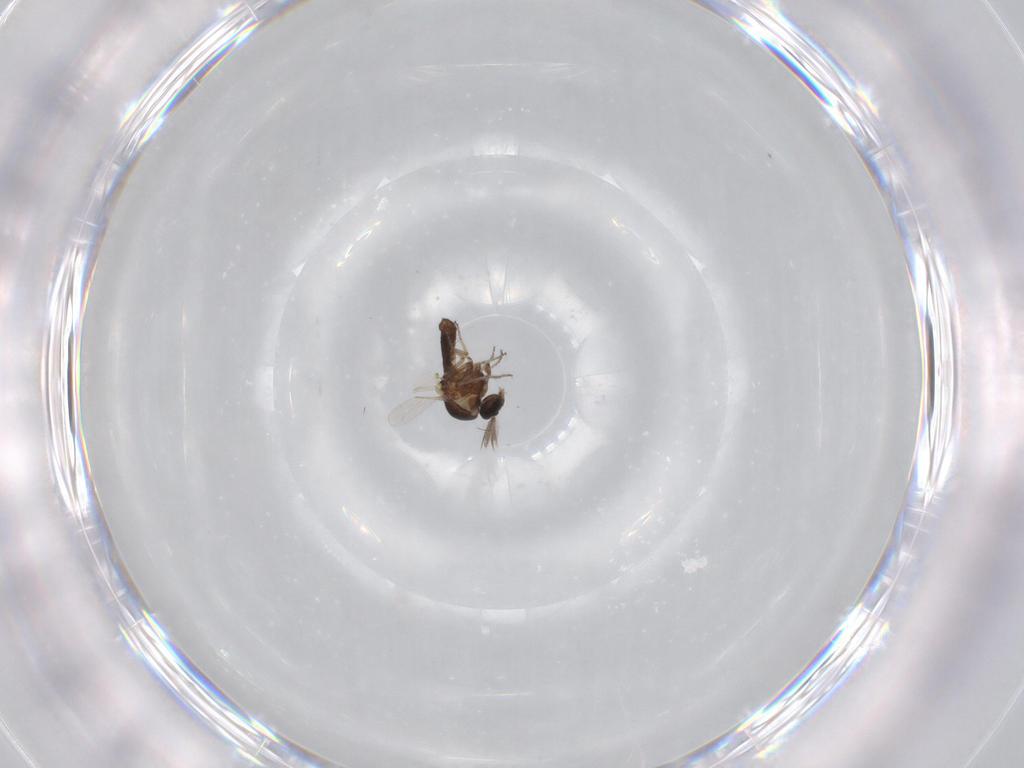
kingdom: Animalia
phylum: Arthropoda
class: Insecta
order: Diptera
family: Ceratopogonidae
